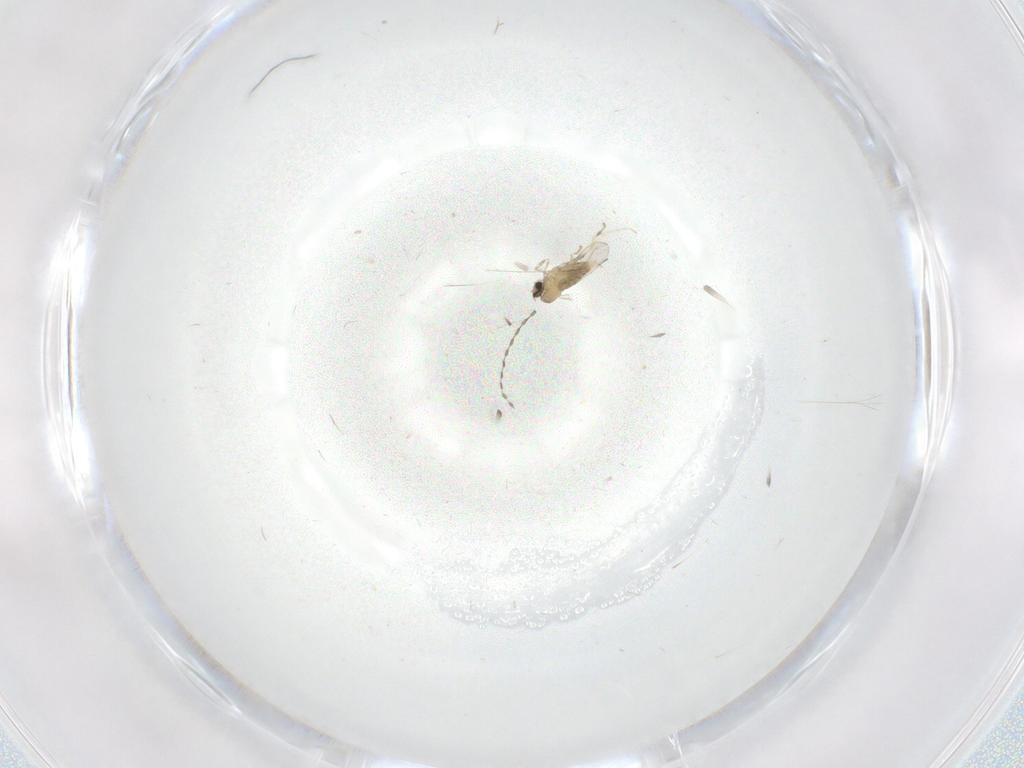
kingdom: Animalia
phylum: Arthropoda
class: Insecta
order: Diptera
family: Cecidomyiidae
